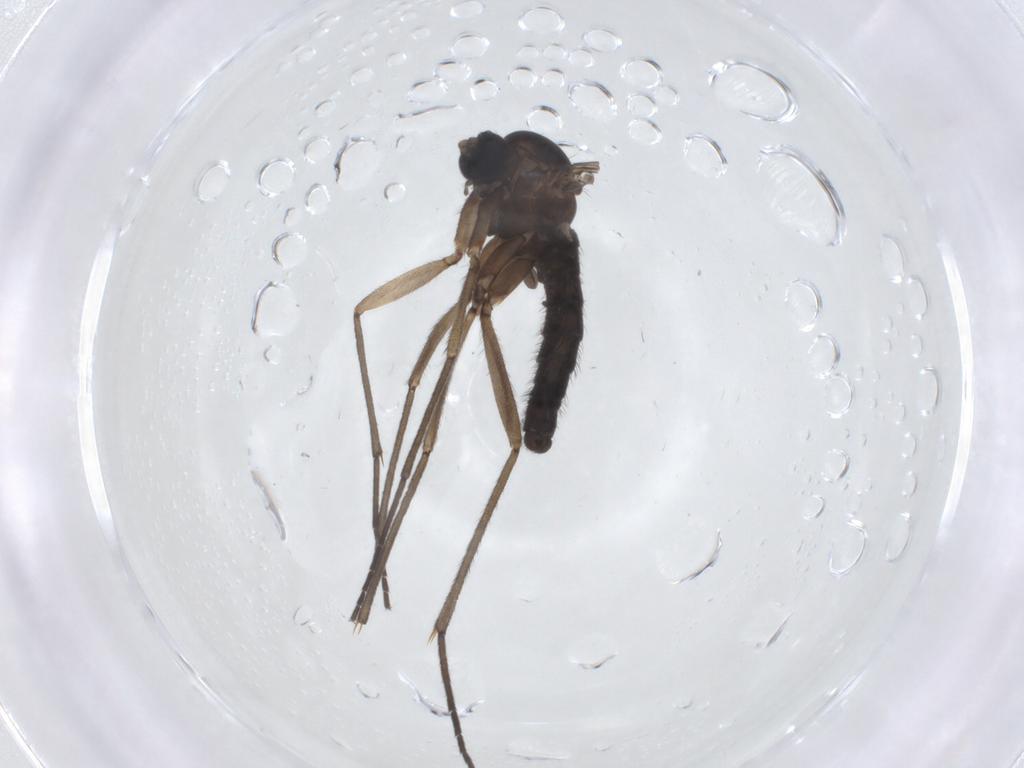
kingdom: Animalia
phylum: Arthropoda
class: Insecta
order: Diptera
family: Sciaridae
